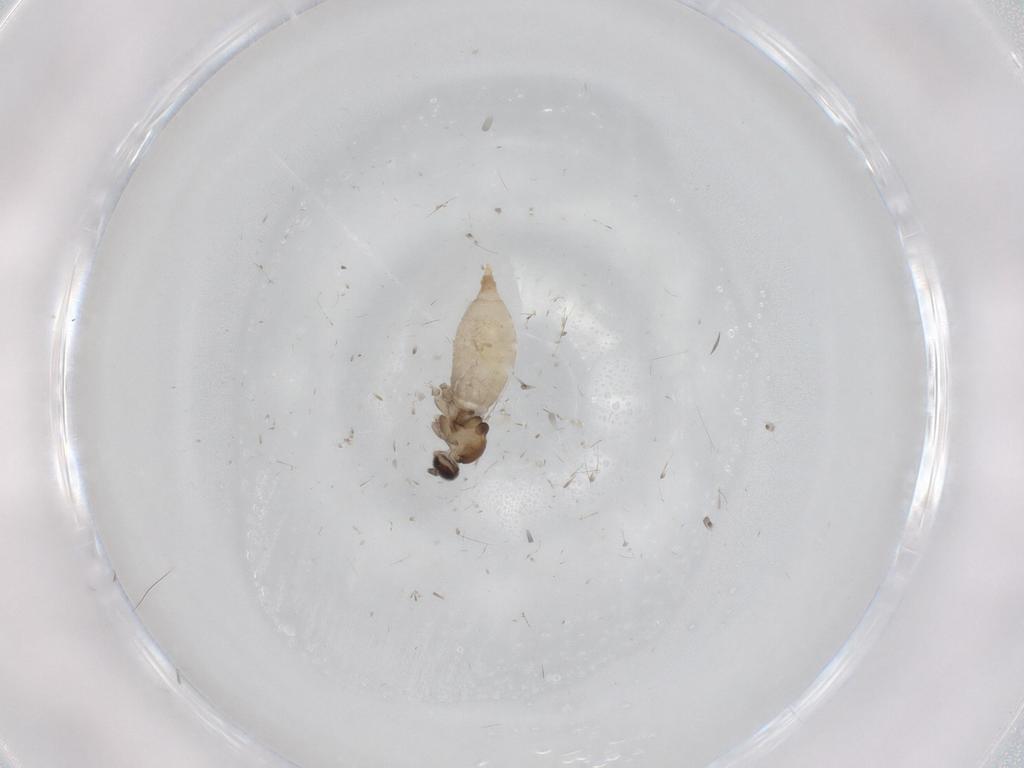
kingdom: Animalia
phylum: Arthropoda
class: Insecta
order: Diptera
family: Cecidomyiidae
